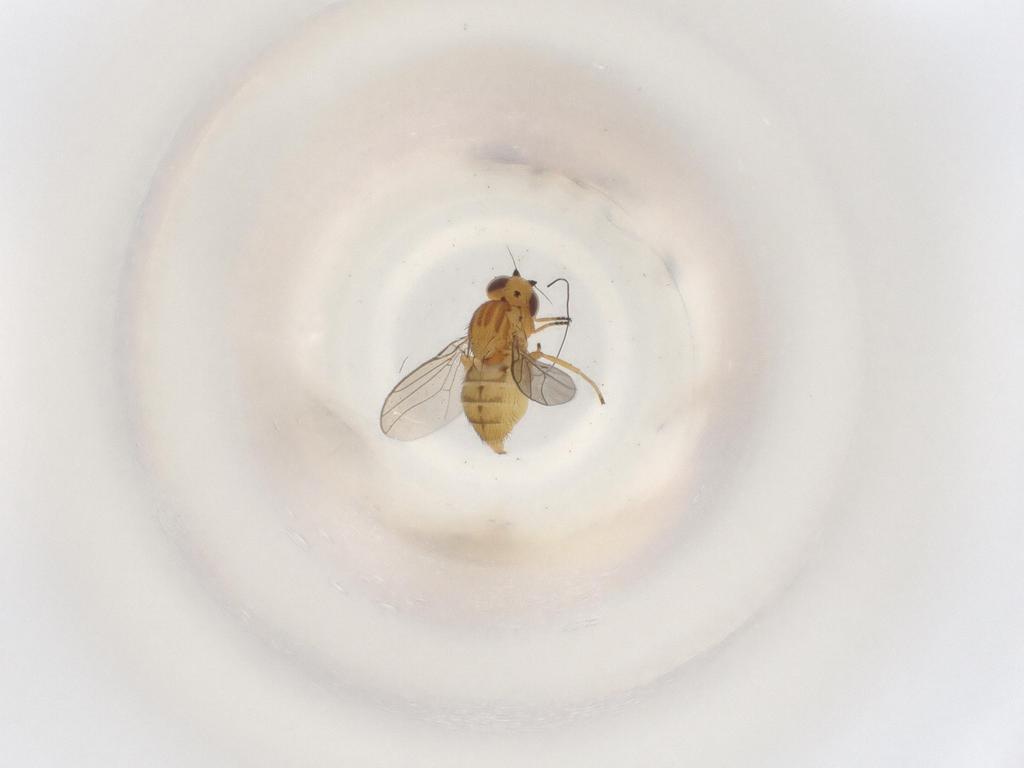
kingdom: Animalia
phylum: Arthropoda
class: Insecta
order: Diptera
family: Chloropidae
